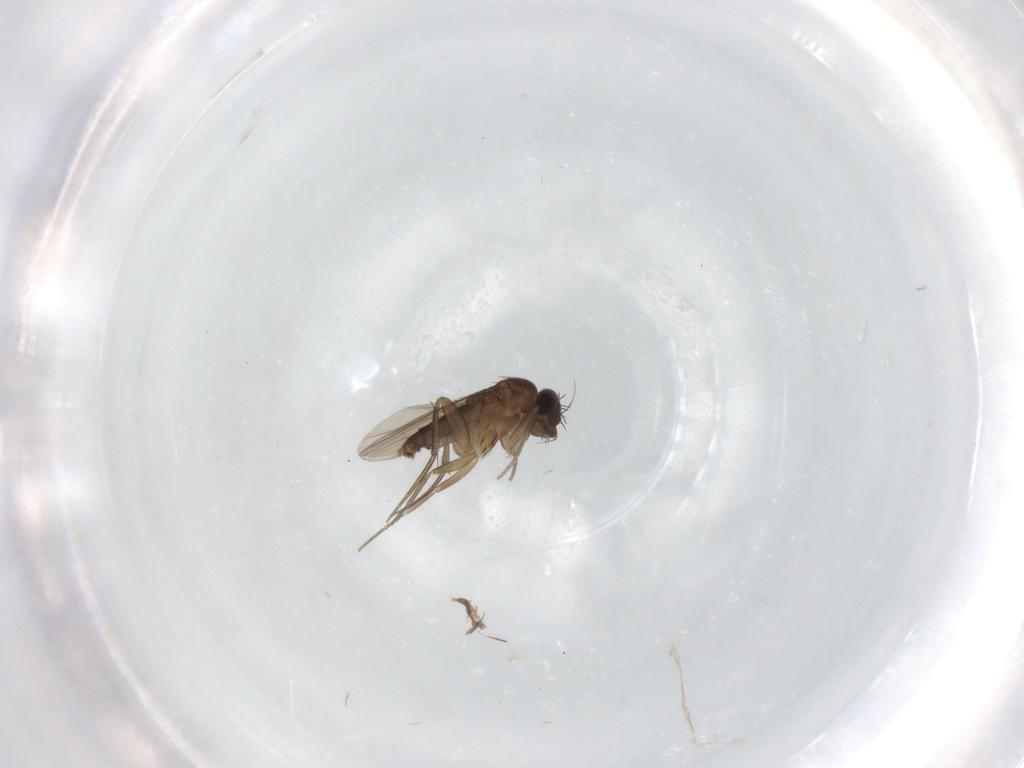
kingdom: Animalia
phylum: Arthropoda
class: Insecta
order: Diptera
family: Phoridae
